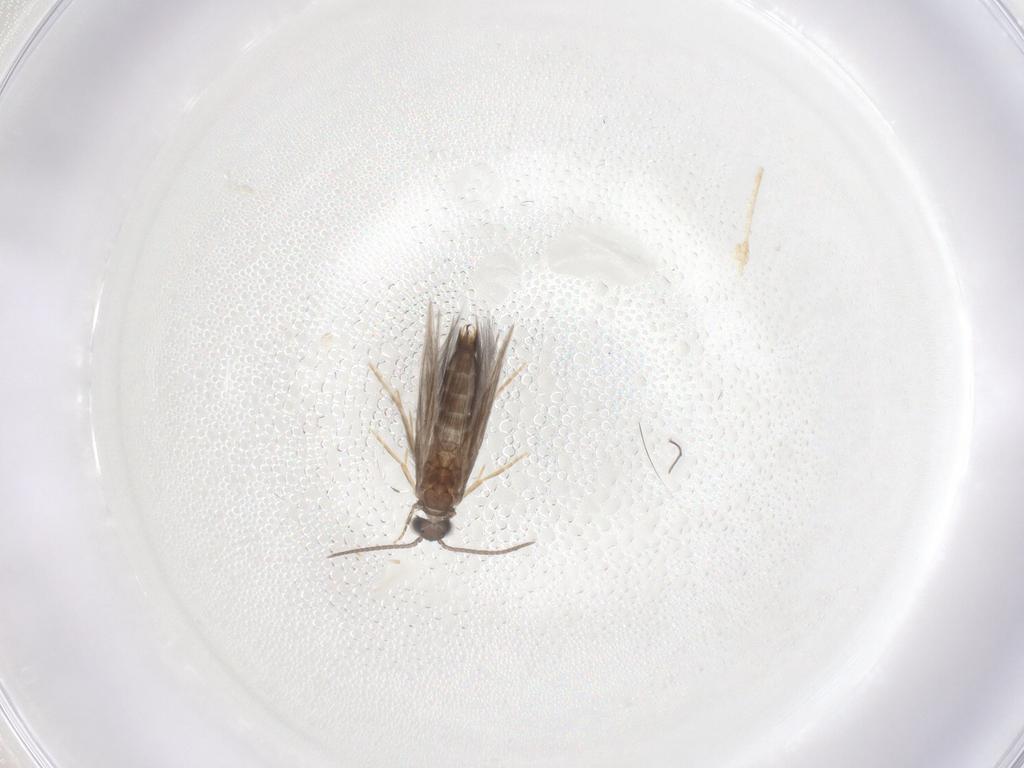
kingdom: Animalia
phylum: Arthropoda
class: Insecta
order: Trichoptera
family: Hydroptilidae
